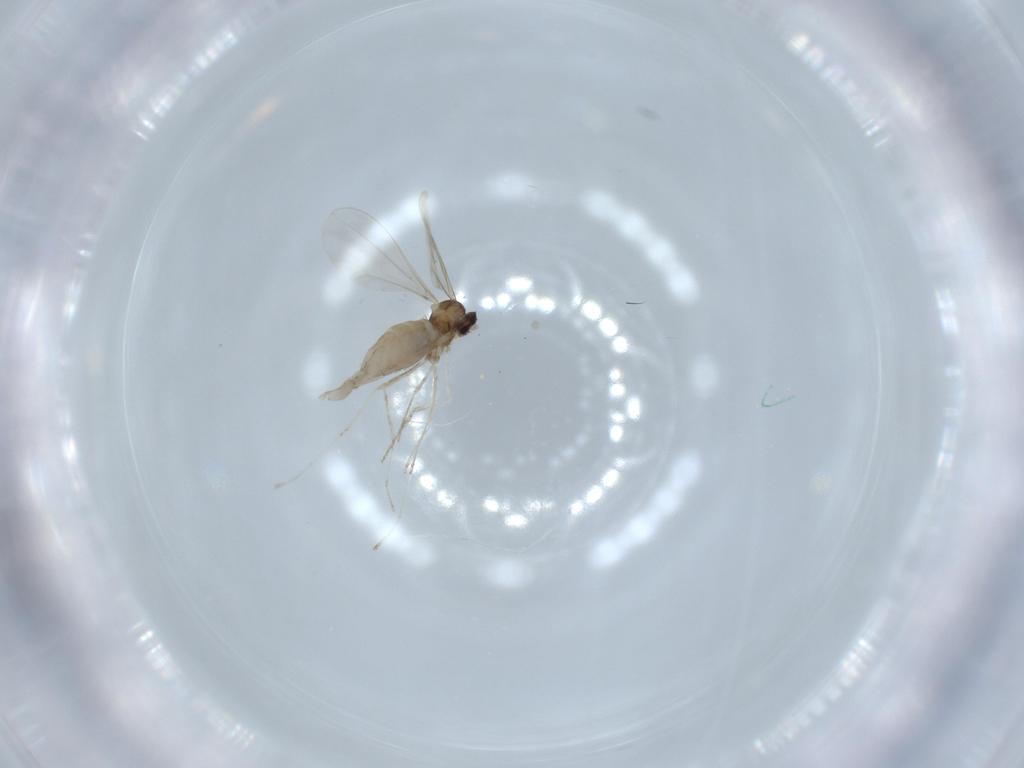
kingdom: Animalia
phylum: Arthropoda
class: Insecta
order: Diptera
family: Cecidomyiidae
